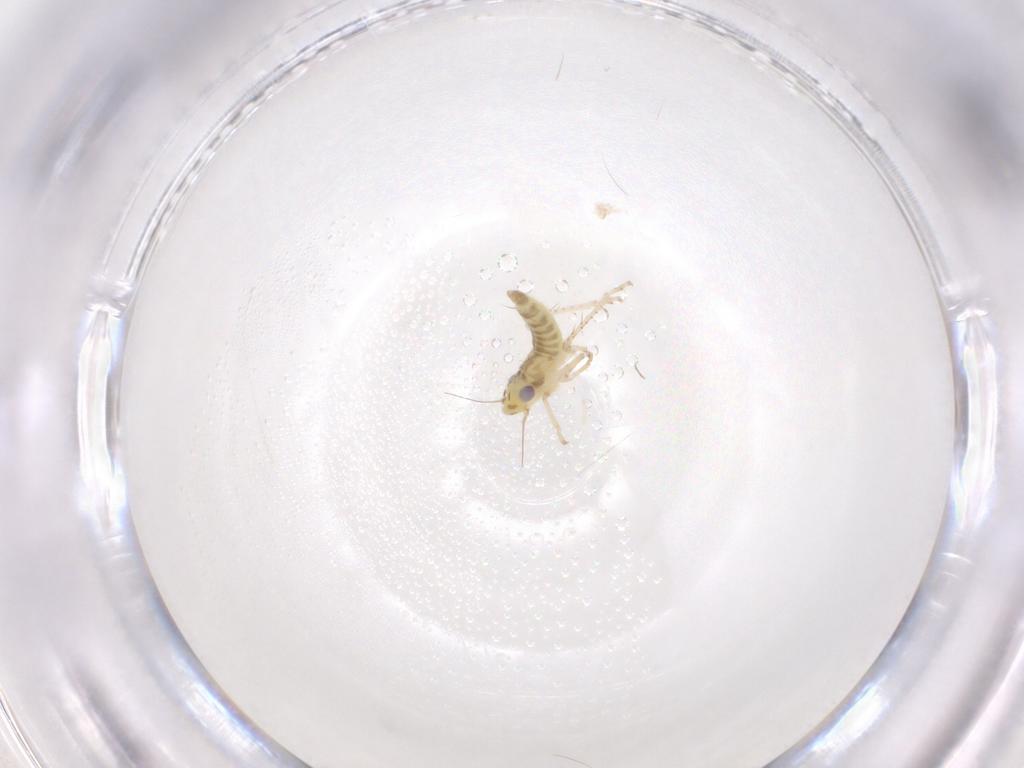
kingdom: Animalia
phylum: Arthropoda
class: Insecta
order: Hemiptera
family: Cicadellidae
